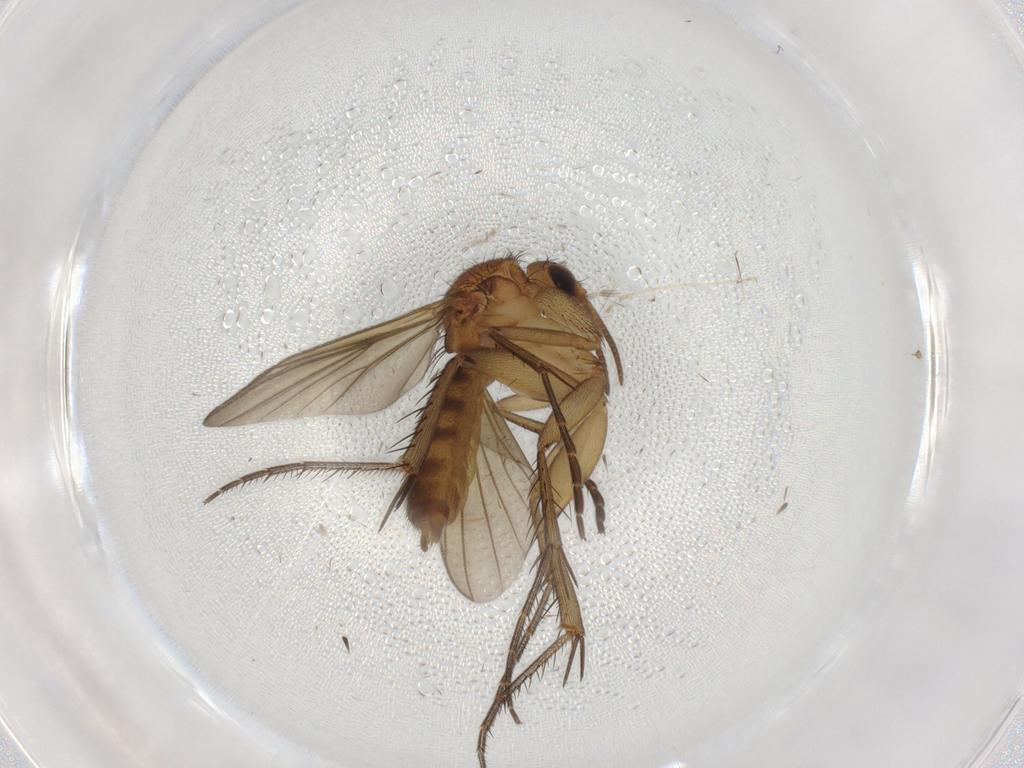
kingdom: Animalia
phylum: Arthropoda
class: Insecta
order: Diptera
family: Mycetophilidae
